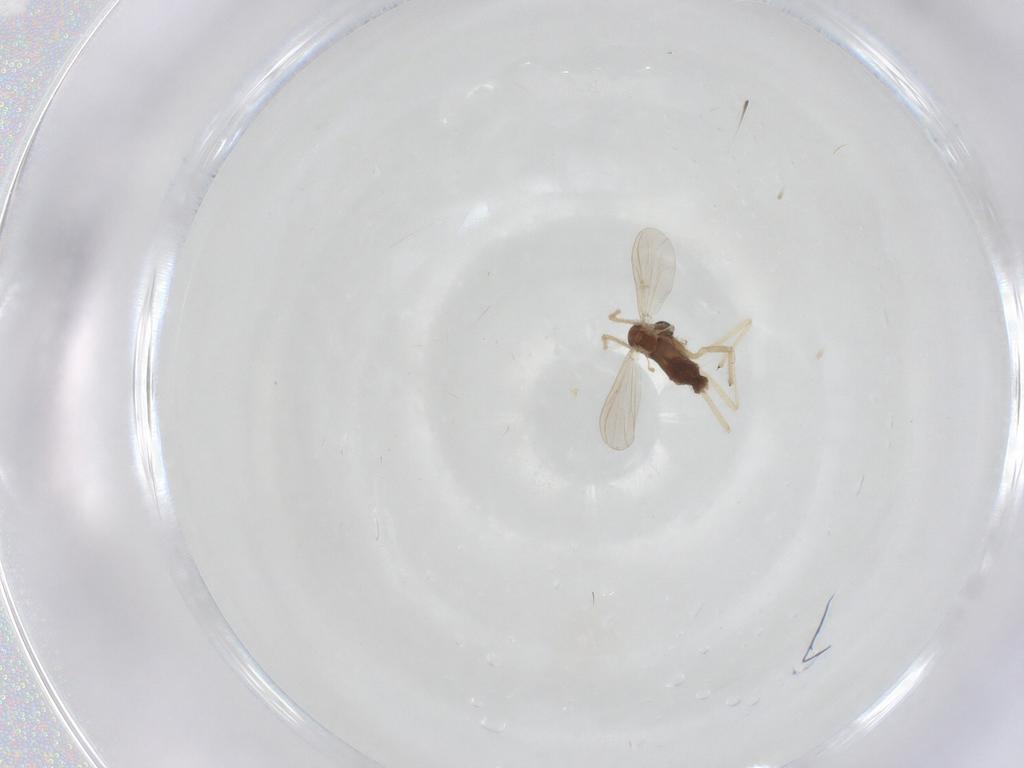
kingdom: Animalia
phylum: Arthropoda
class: Insecta
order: Diptera
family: Ceratopogonidae
